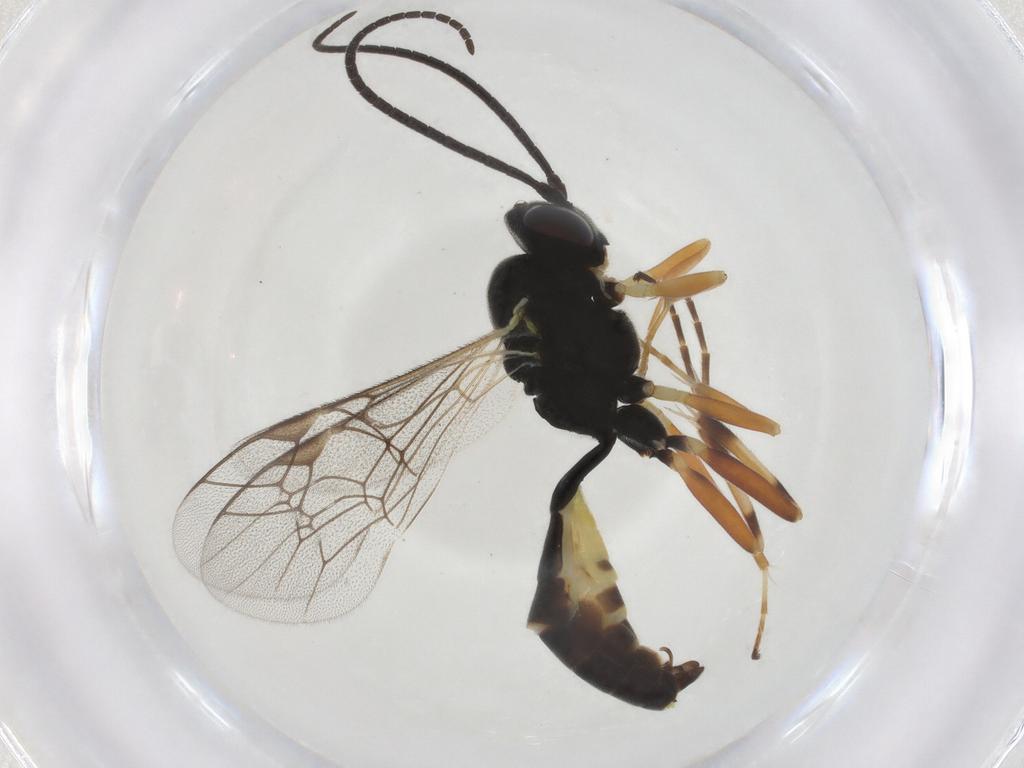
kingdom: Animalia
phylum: Arthropoda
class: Insecta
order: Hymenoptera
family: Ichneumonidae
